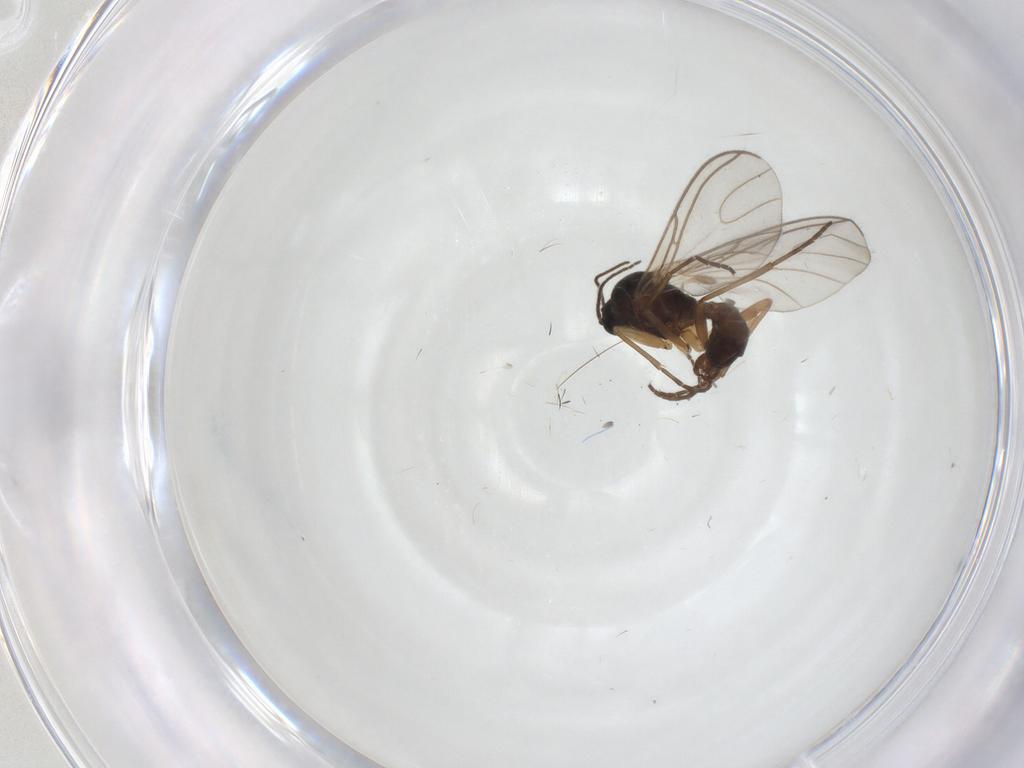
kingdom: Animalia
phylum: Arthropoda
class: Insecta
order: Diptera
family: Sciaridae
